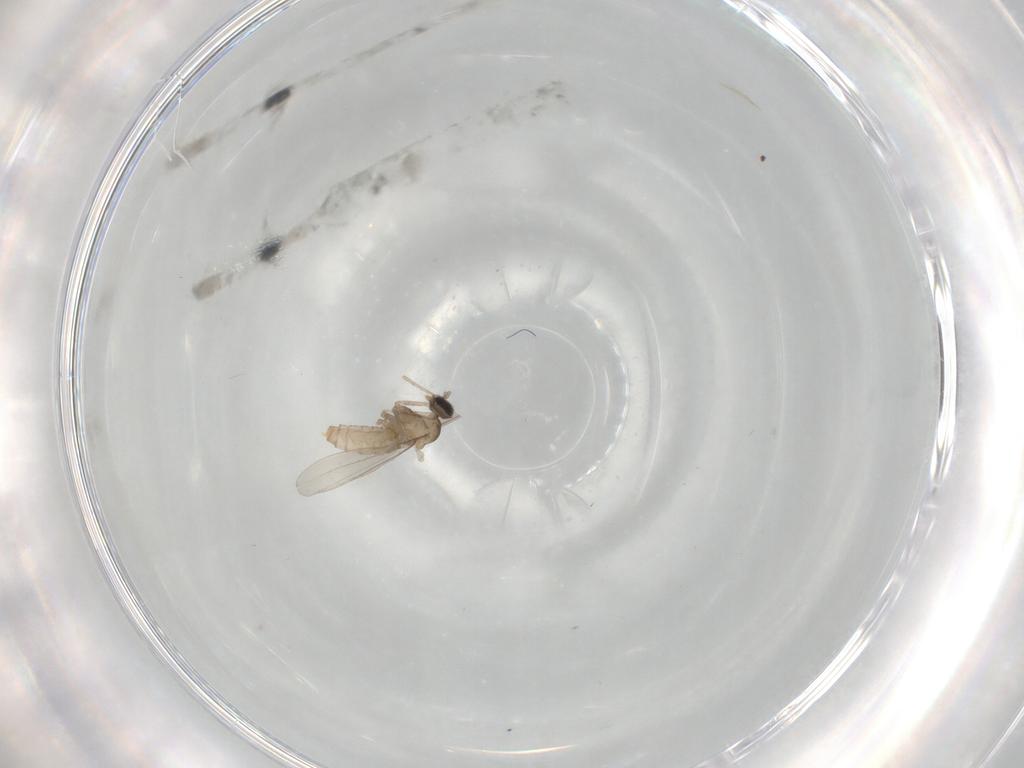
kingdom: Animalia
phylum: Arthropoda
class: Insecta
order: Diptera
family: Cecidomyiidae
